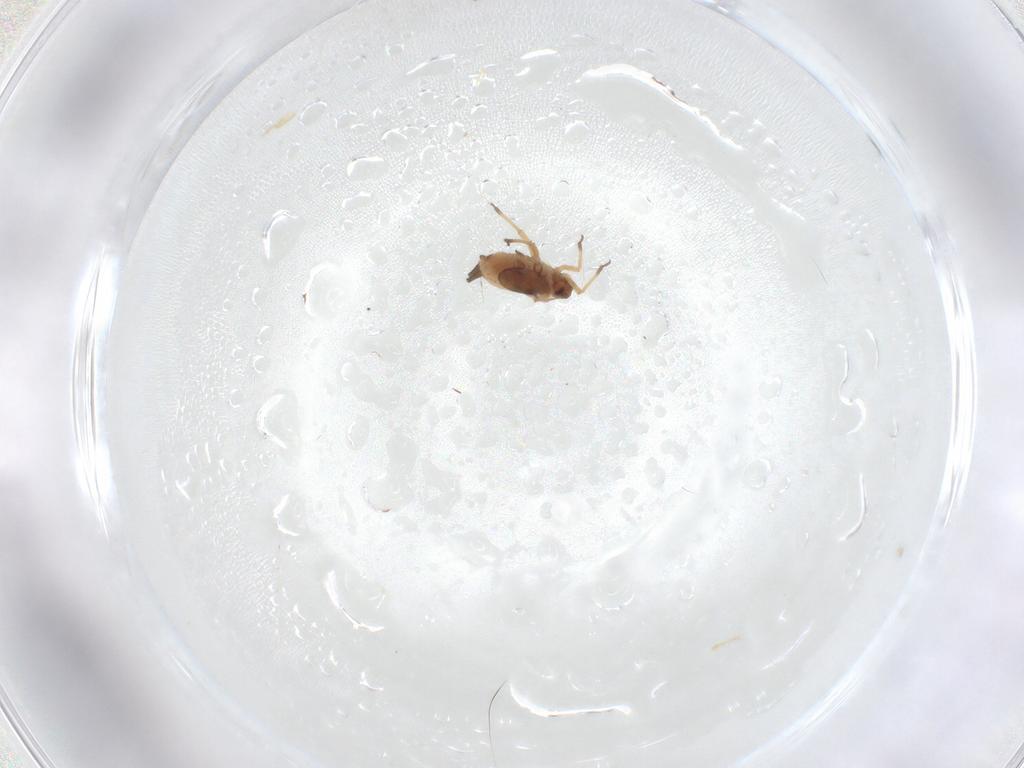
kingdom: Animalia
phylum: Arthropoda
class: Insecta
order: Hemiptera
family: Aphididae
